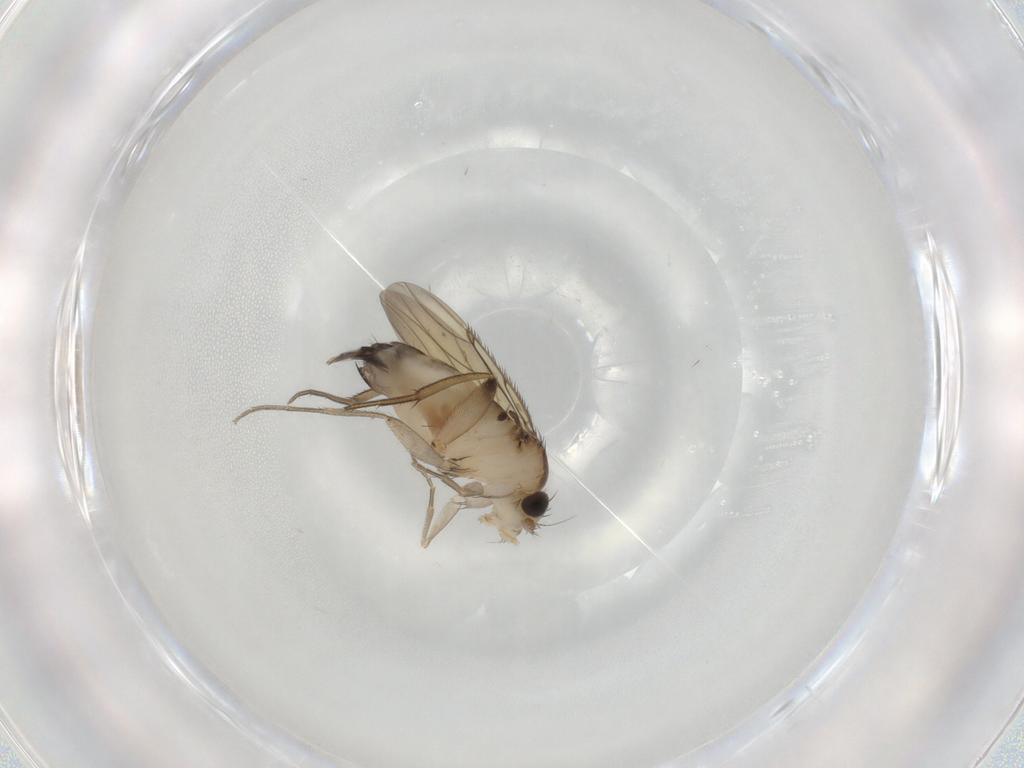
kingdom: Animalia
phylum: Arthropoda
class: Insecta
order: Diptera
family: Phoridae
